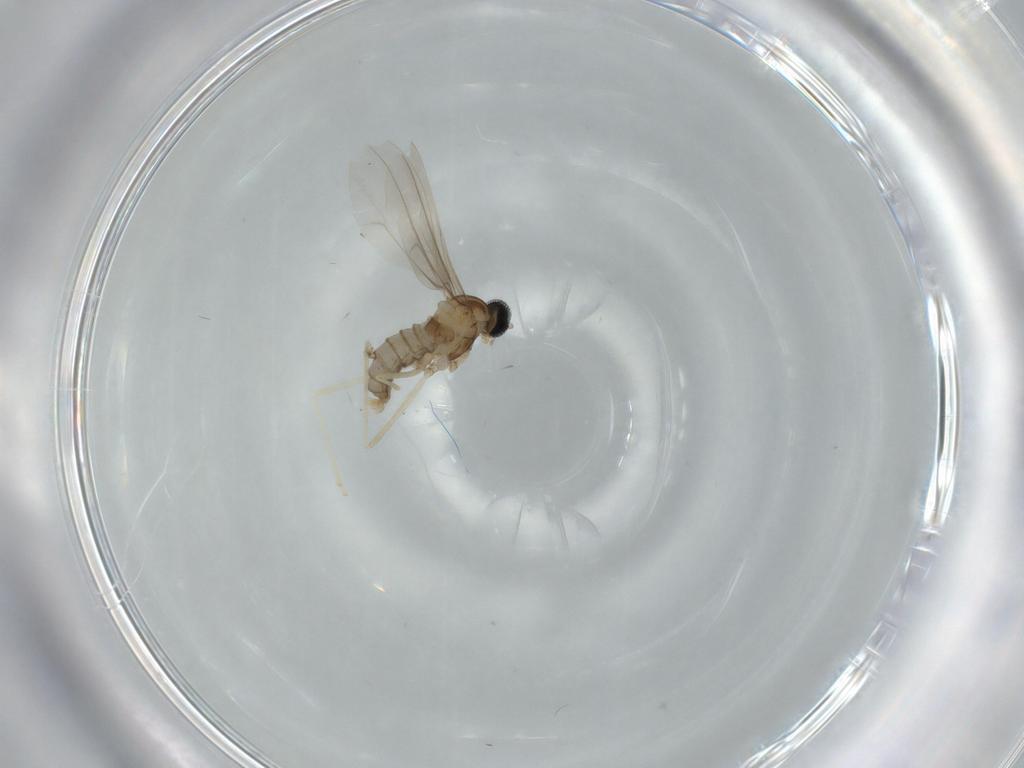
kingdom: Animalia
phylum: Arthropoda
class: Insecta
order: Diptera
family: Cecidomyiidae
